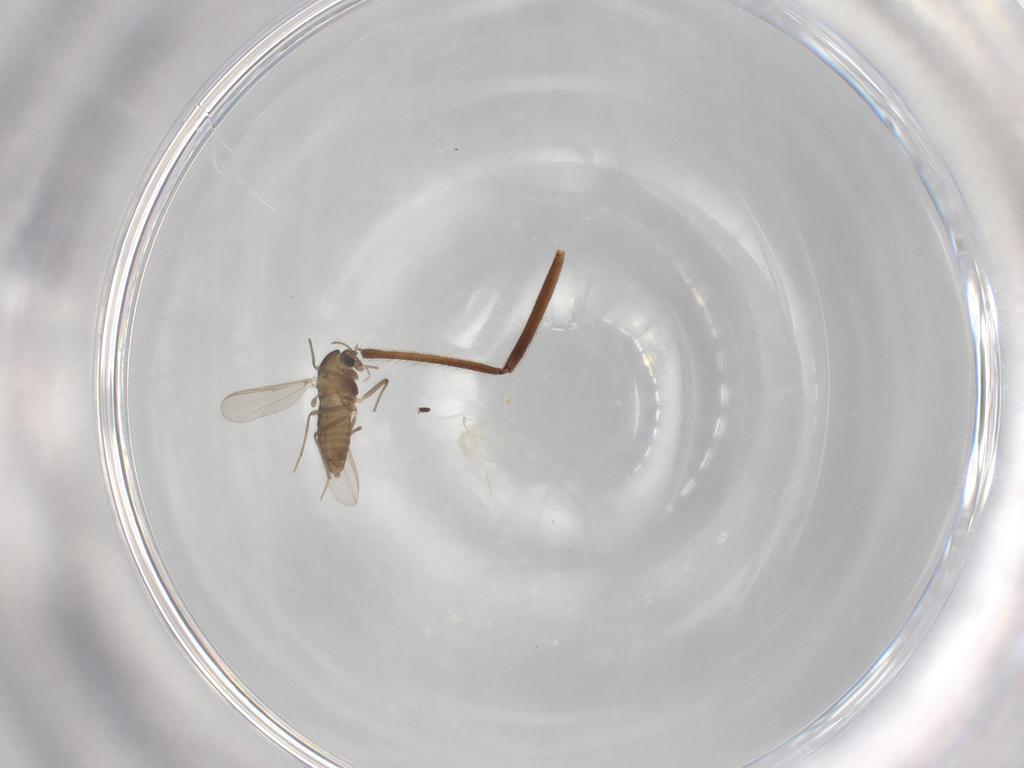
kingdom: Animalia
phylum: Arthropoda
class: Insecta
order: Diptera
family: Chironomidae
